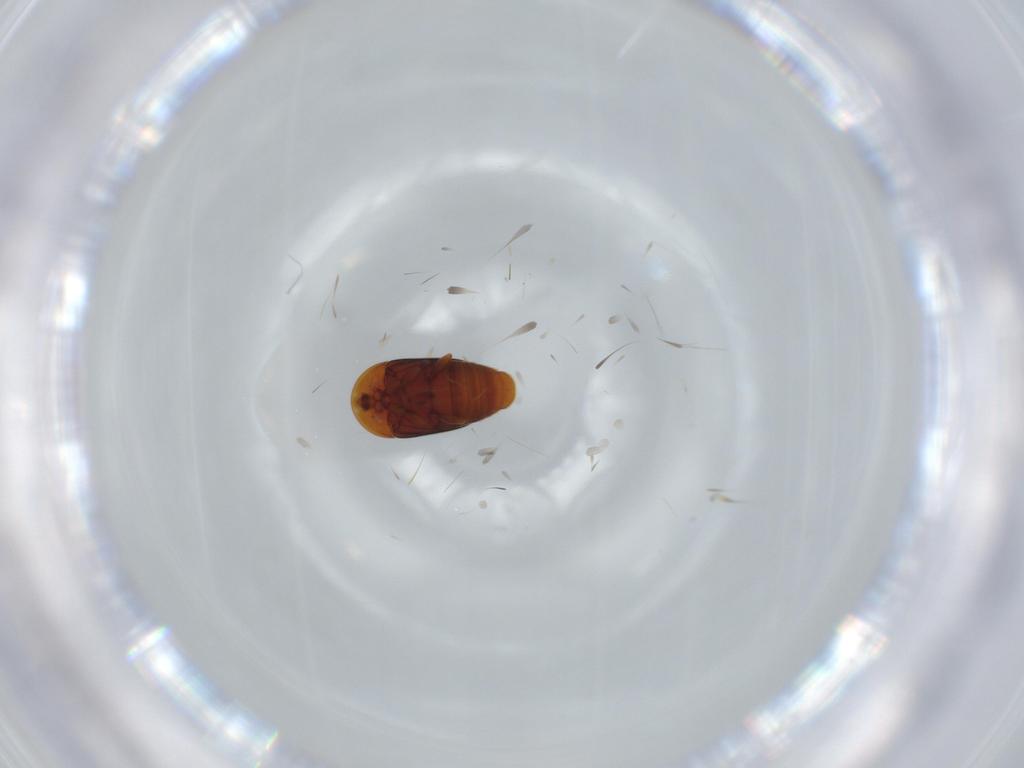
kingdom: Animalia
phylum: Arthropoda
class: Insecta
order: Coleoptera
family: Corylophidae
